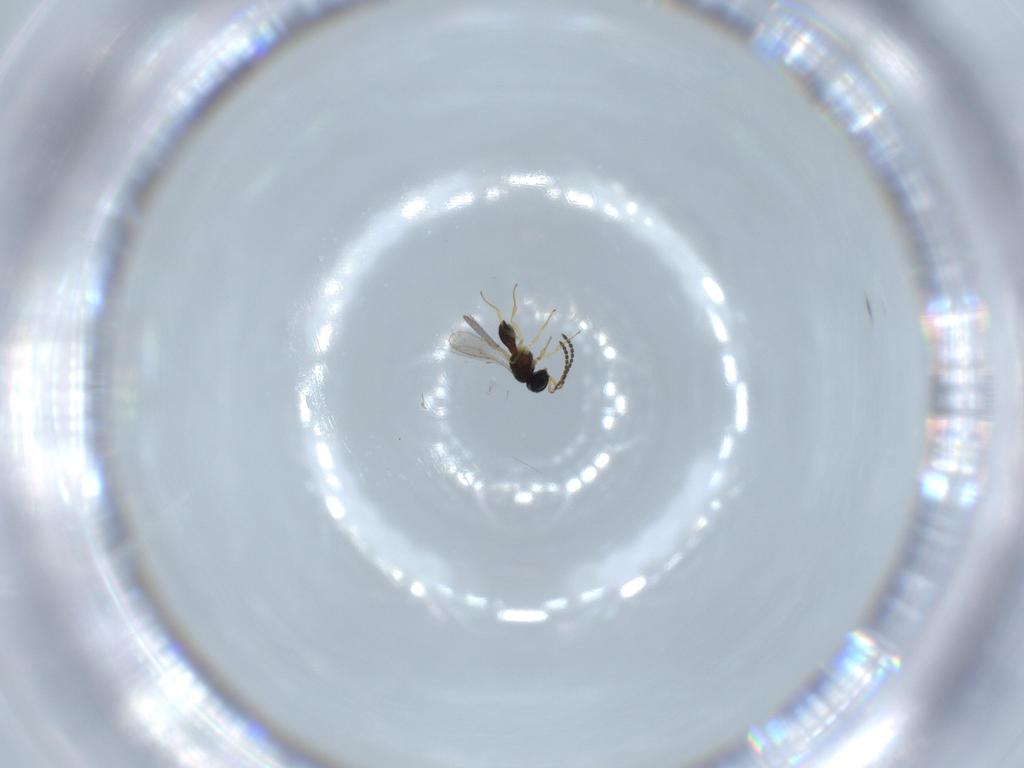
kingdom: Animalia
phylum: Arthropoda
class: Insecta
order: Hymenoptera
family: Scelionidae
